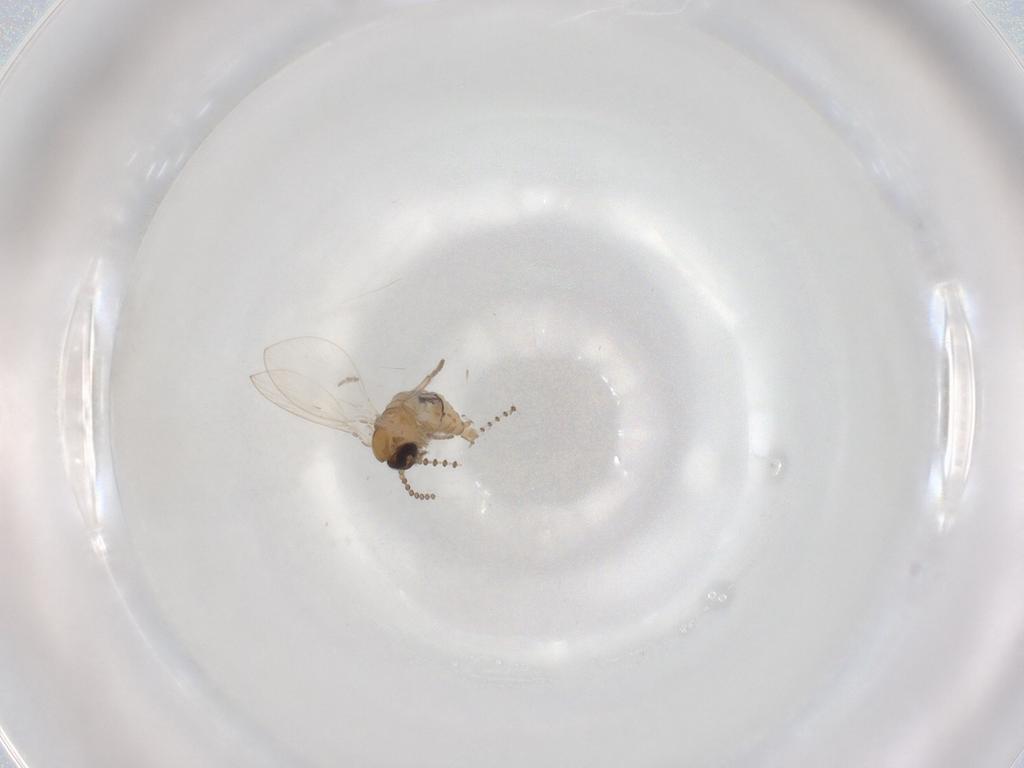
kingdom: Animalia
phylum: Arthropoda
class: Insecta
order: Diptera
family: Psychodidae
